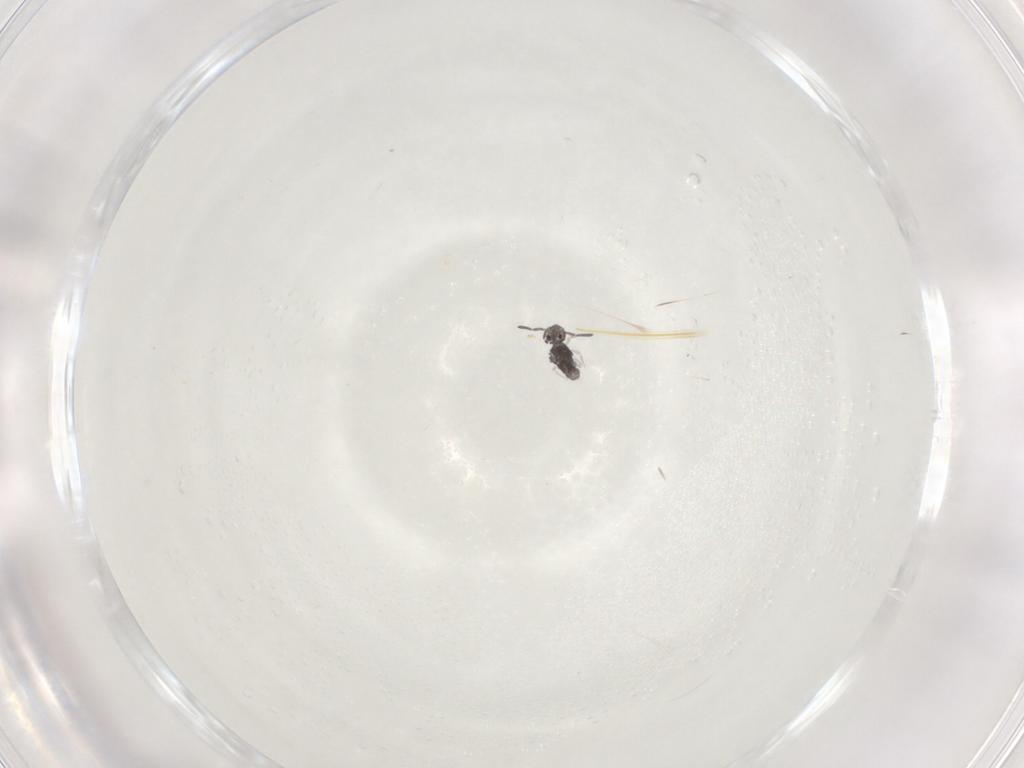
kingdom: Animalia
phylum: Arthropoda
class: Collembola
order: Symphypleona
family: Katiannidae
